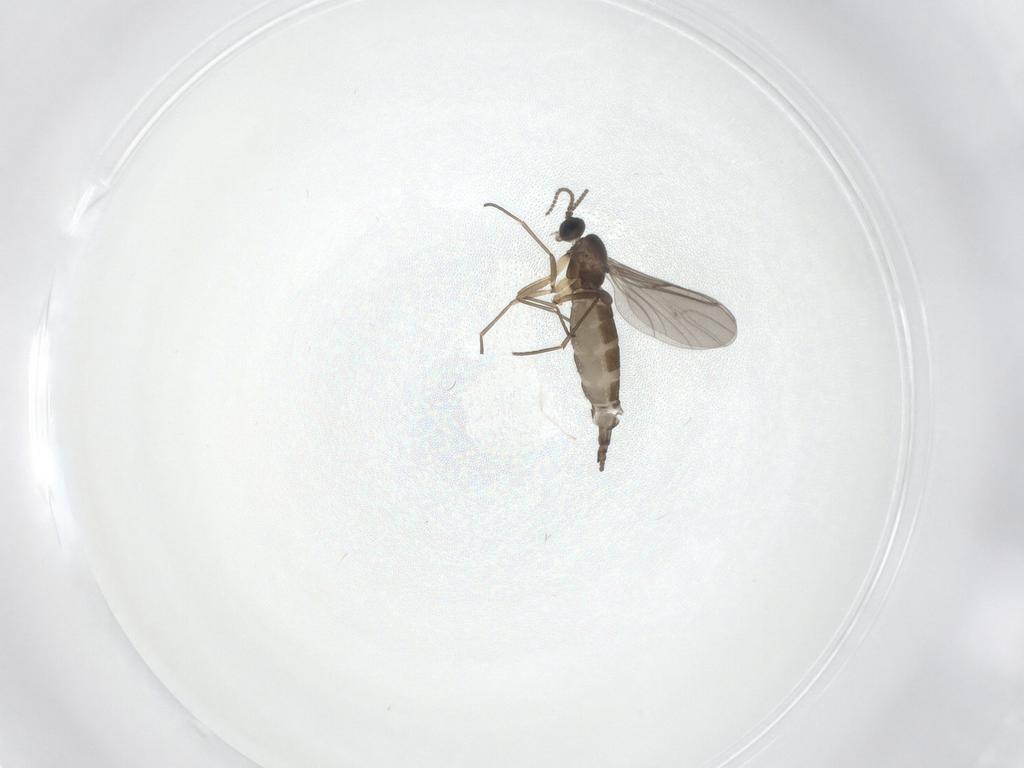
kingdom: Animalia
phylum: Arthropoda
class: Insecta
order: Diptera
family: Sciaridae
